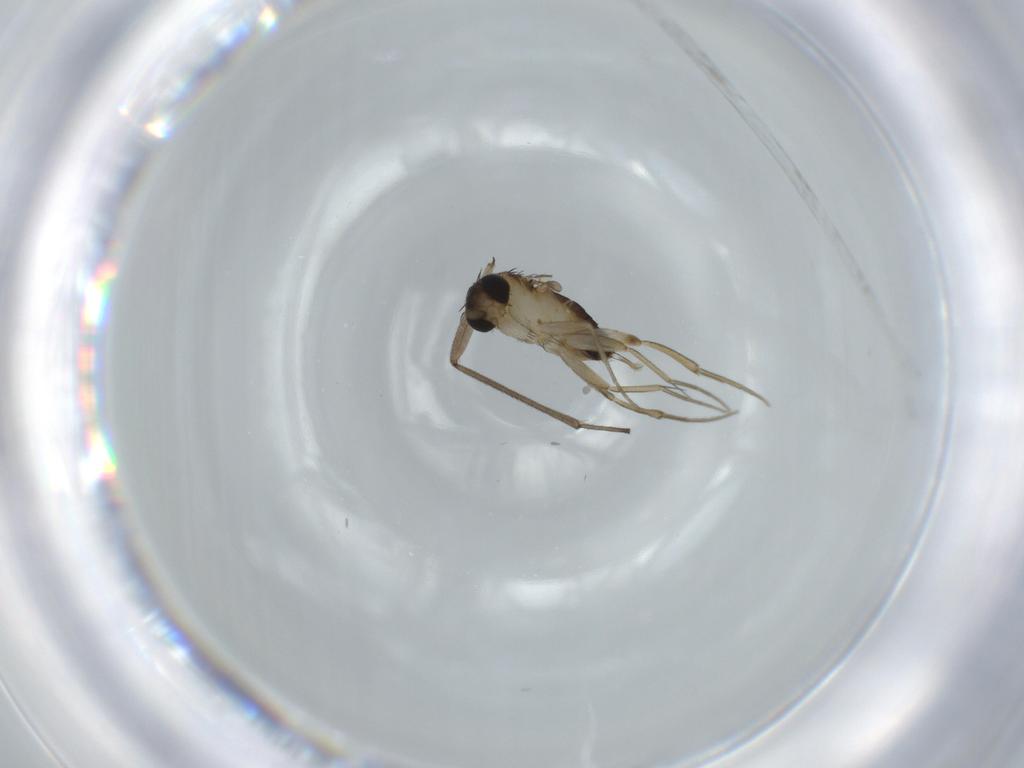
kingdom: Animalia
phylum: Arthropoda
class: Insecta
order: Diptera
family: Phoridae
